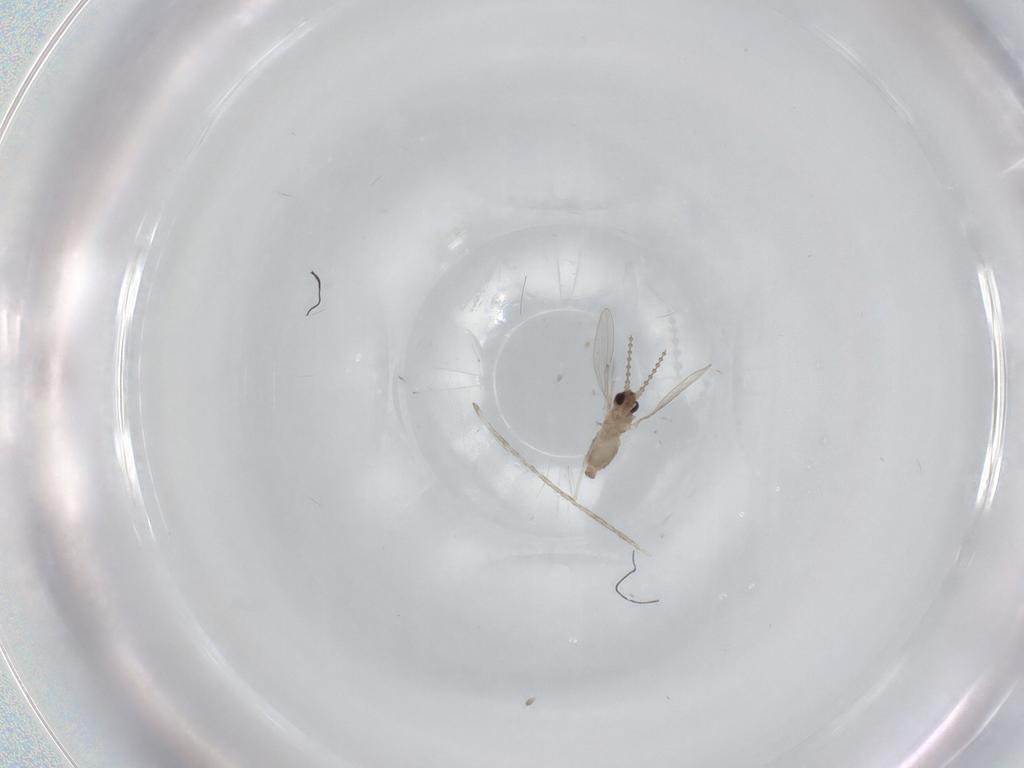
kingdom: Animalia
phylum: Arthropoda
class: Insecta
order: Diptera
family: Cecidomyiidae
